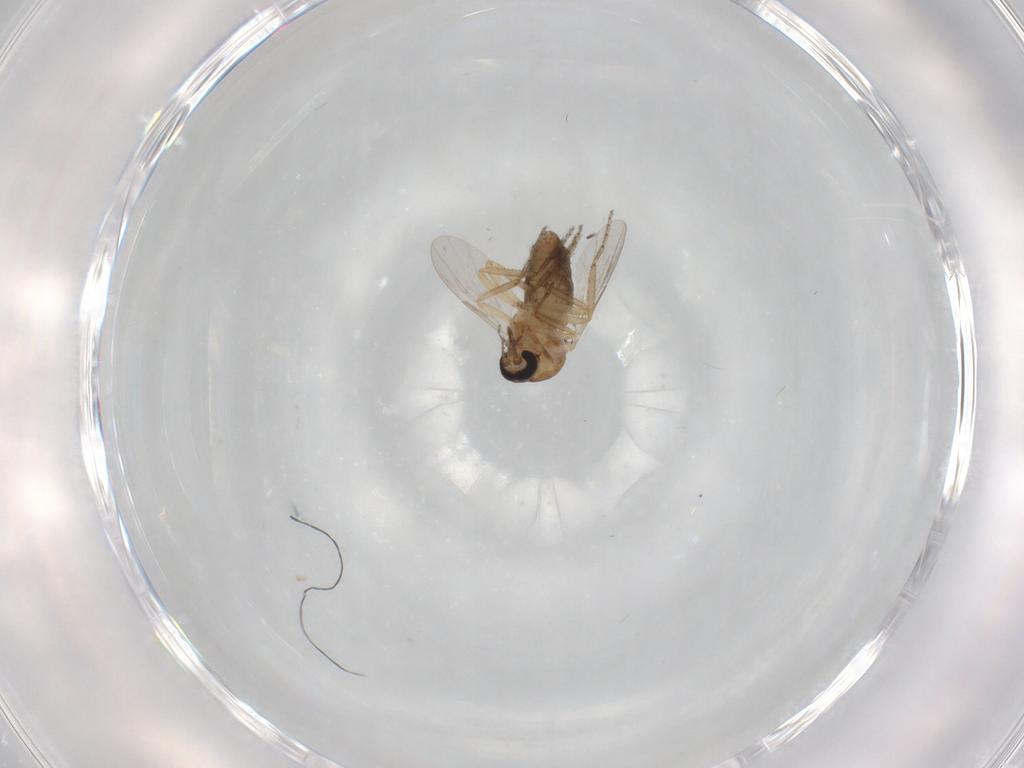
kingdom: Animalia
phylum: Arthropoda
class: Insecta
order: Diptera
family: Ceratopogonidae
